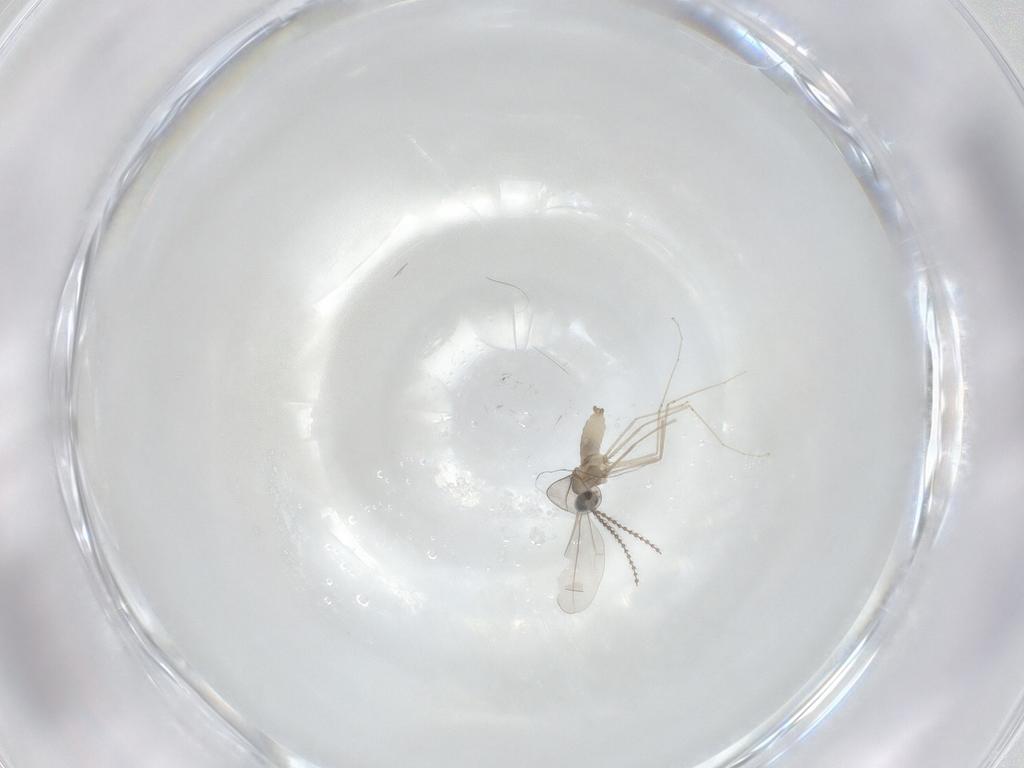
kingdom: Animalia
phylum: Arthropoda
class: Insecta
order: Diptera
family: Cecidomyiidae
